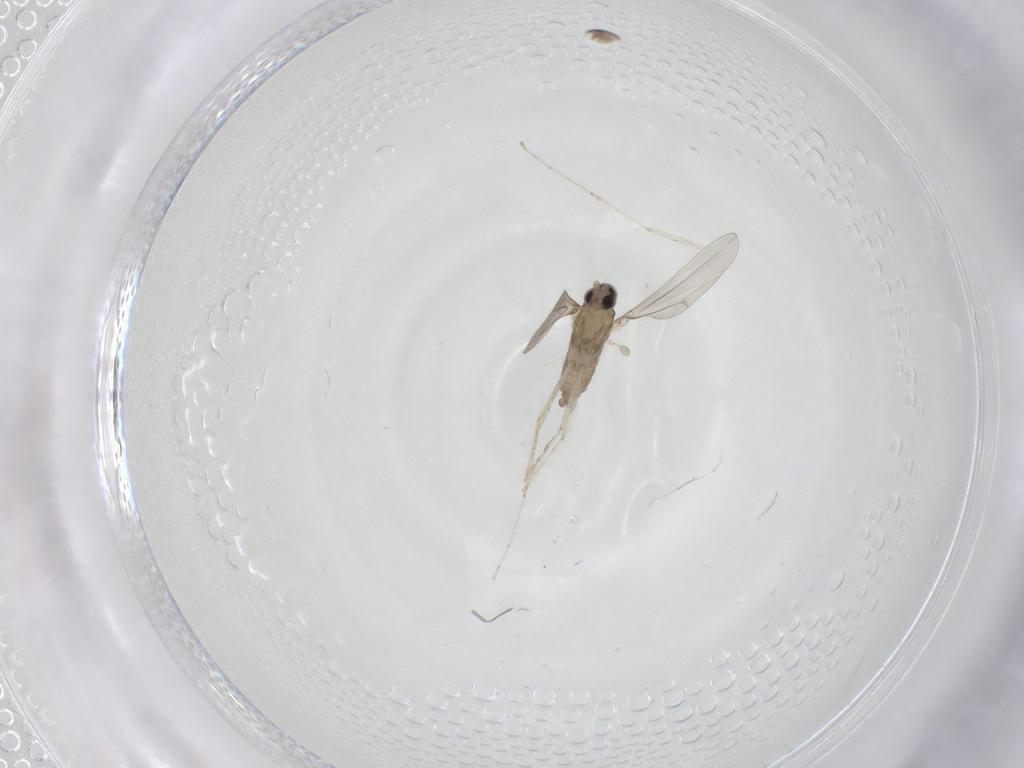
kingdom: Animalia
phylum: Arthropoda
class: Insecta
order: Diptera
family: Cecidomyiidae
